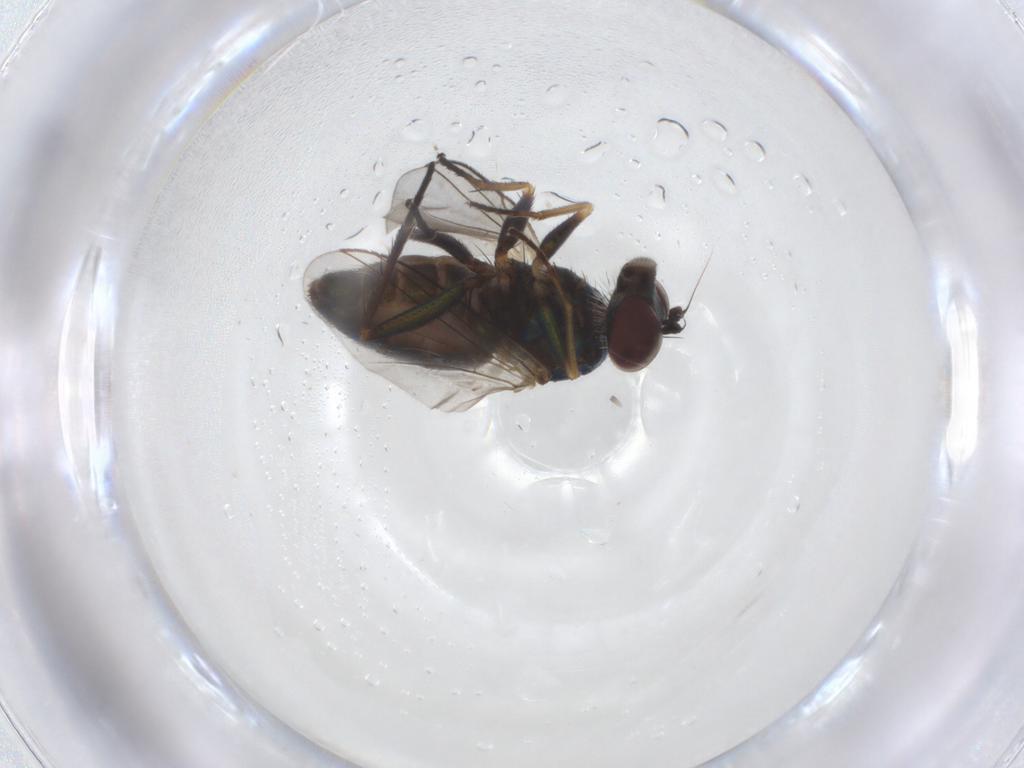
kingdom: Animalia
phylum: Arthropoda
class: Insecta
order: Diptera
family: Dolichopodidae
